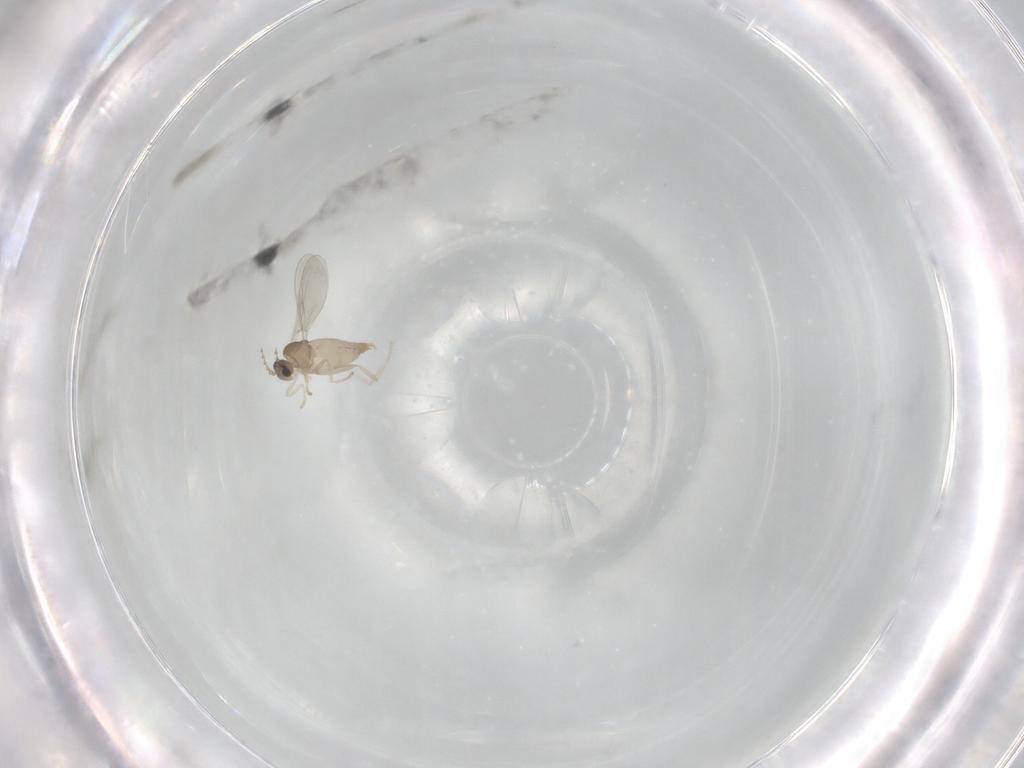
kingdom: Animalia
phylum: Arthropoda
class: Insecta
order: Diptera
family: Cecidomyiidae
